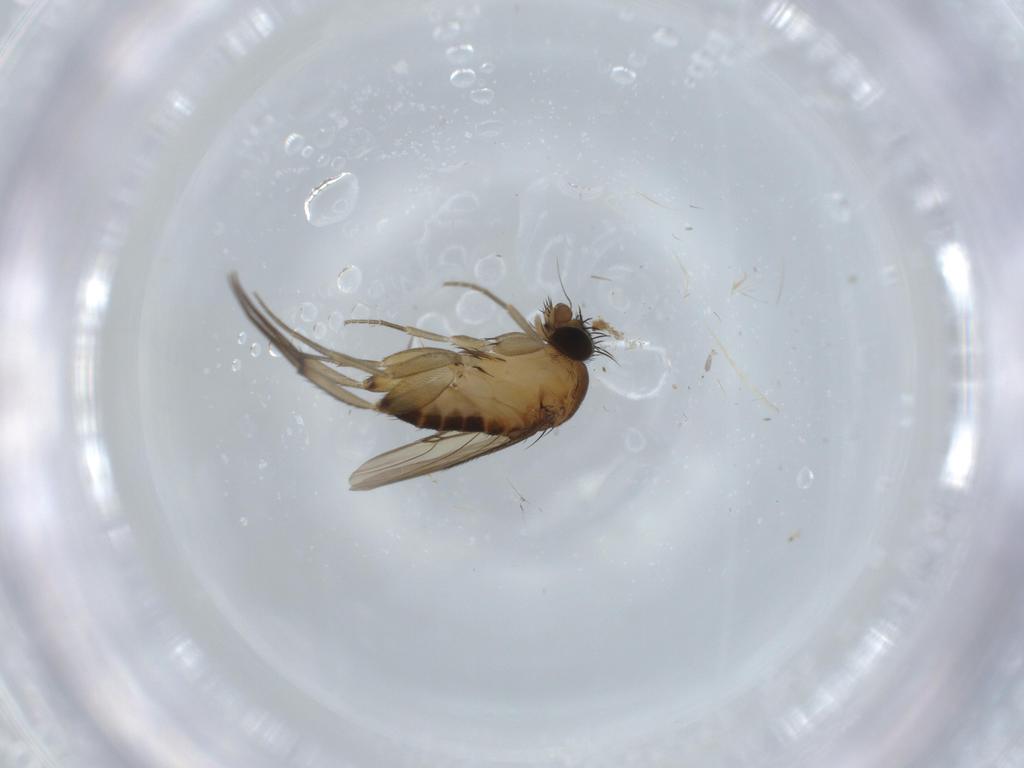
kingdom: Animalia
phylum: Arthropoda
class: Insecta
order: Diptera
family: Phoridae
